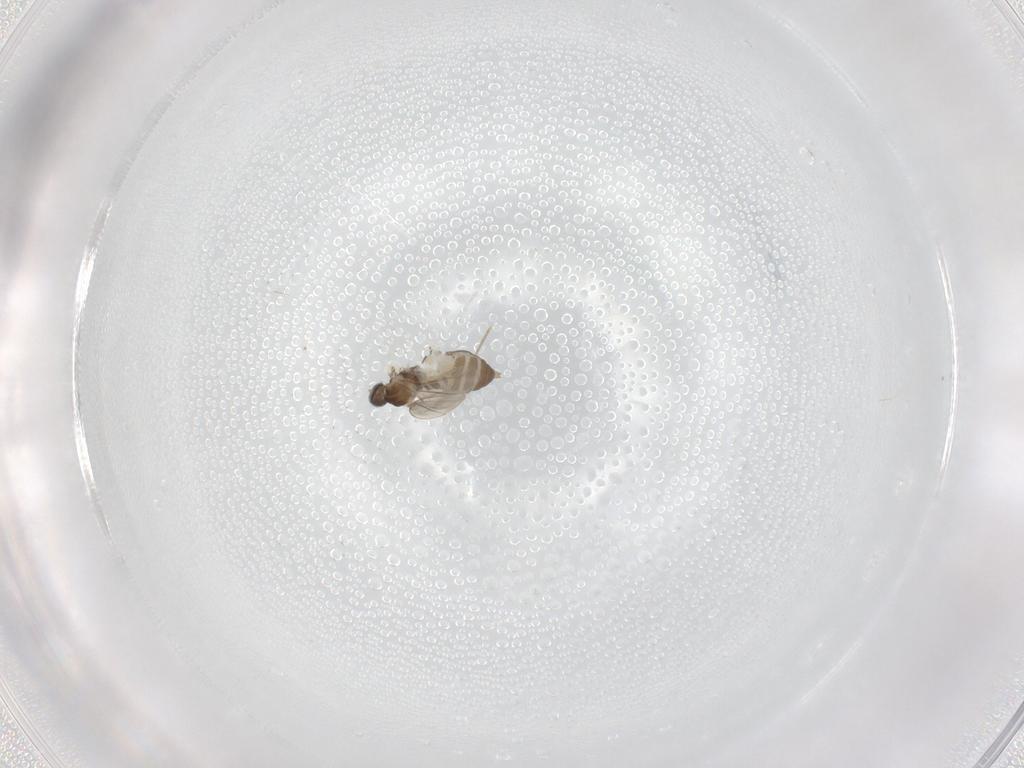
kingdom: Animalia
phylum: Arthropoda
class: Insecta
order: Diptera
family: Cecidomyiidae
